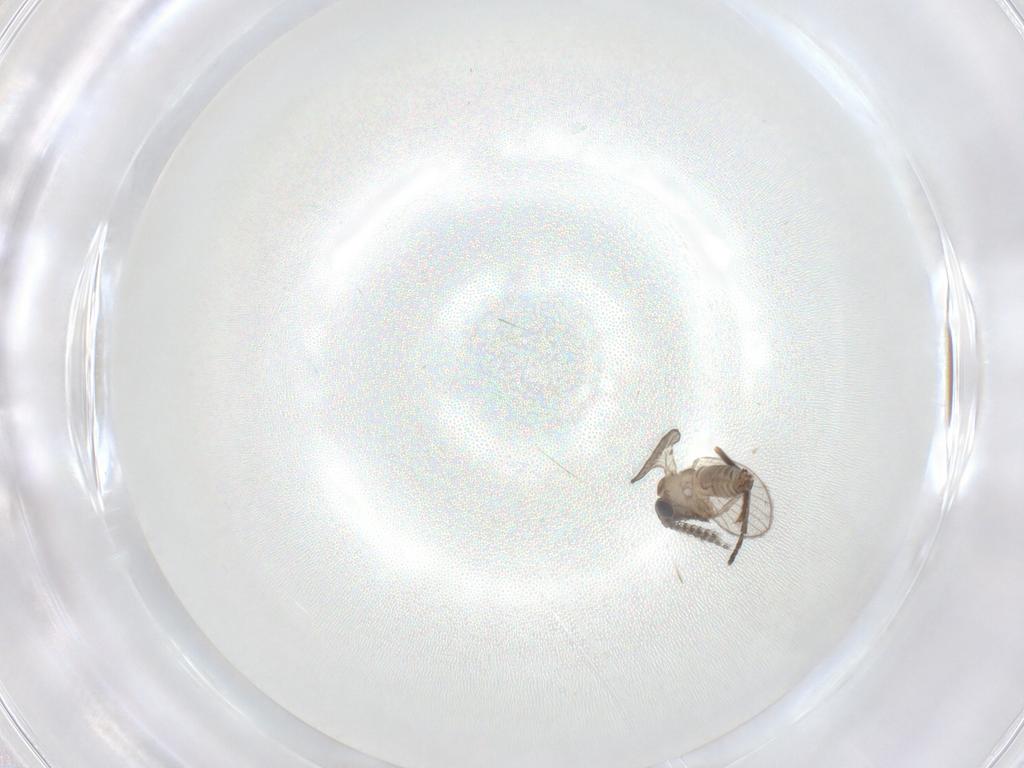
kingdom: Animalia
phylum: Arthropoda
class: Insecta
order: Diptera
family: Psychodidae
